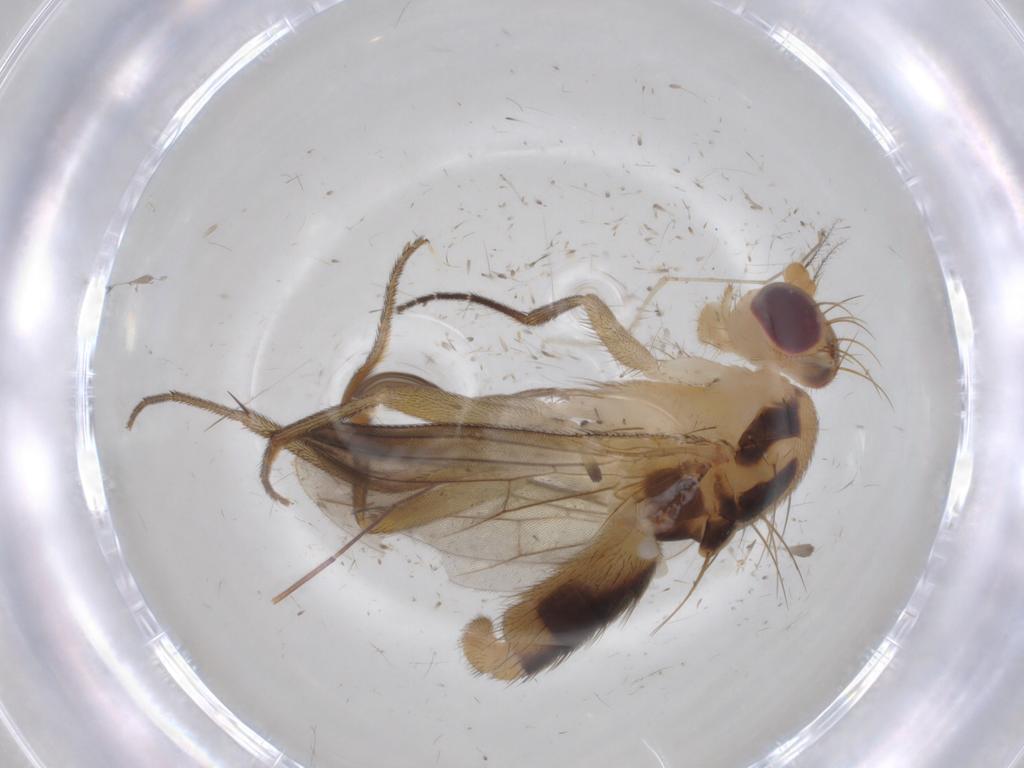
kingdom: Animalia
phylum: Arthropoda
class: Insecta
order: Diptera
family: Clusiidae
